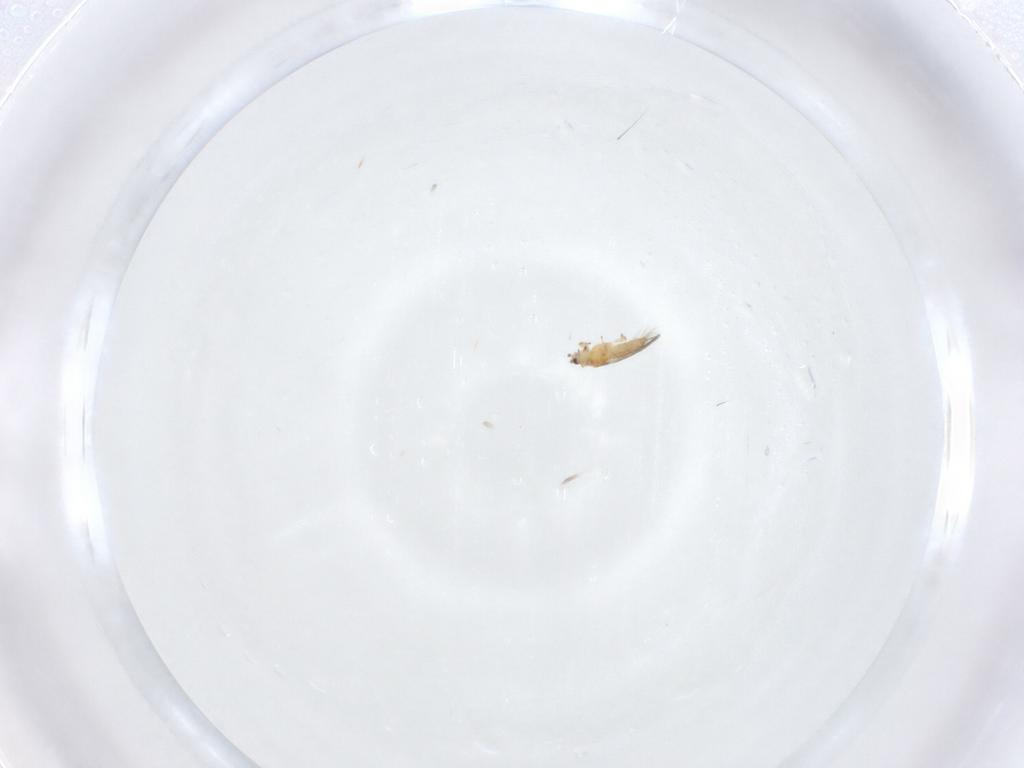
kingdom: Animalia
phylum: Arthropoda
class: Insecta
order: Thysanoptera
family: Thripidae
